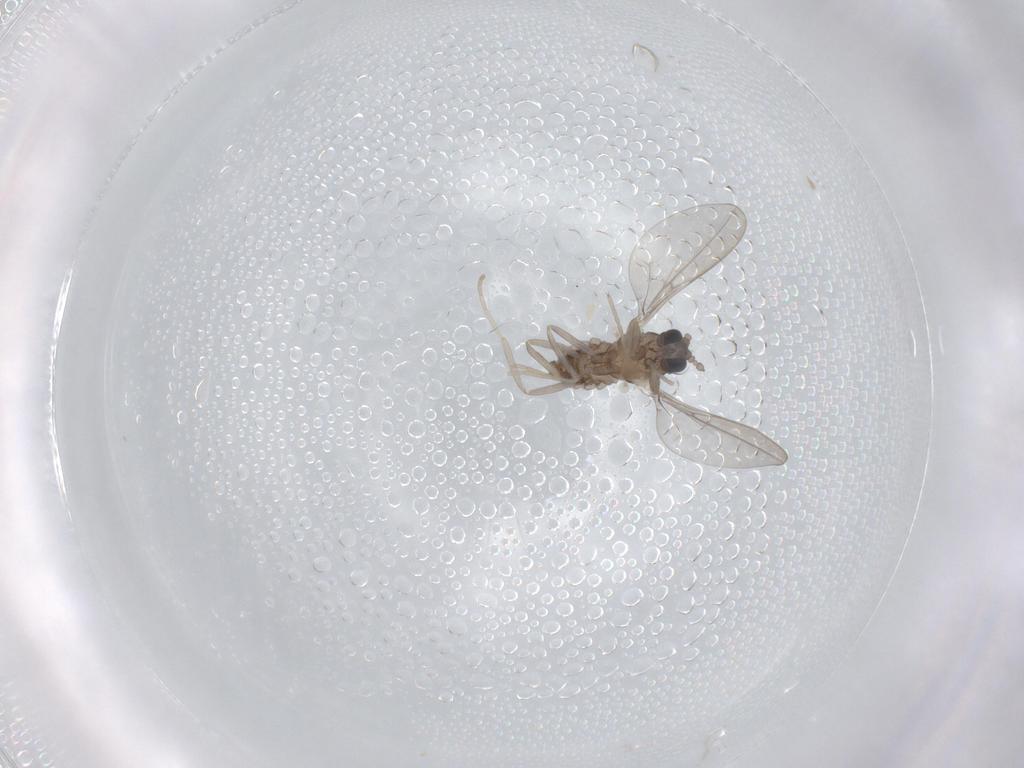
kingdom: Animalia
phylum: Arthropoda
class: Insecta
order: Diptera
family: Cecidomyiidae
